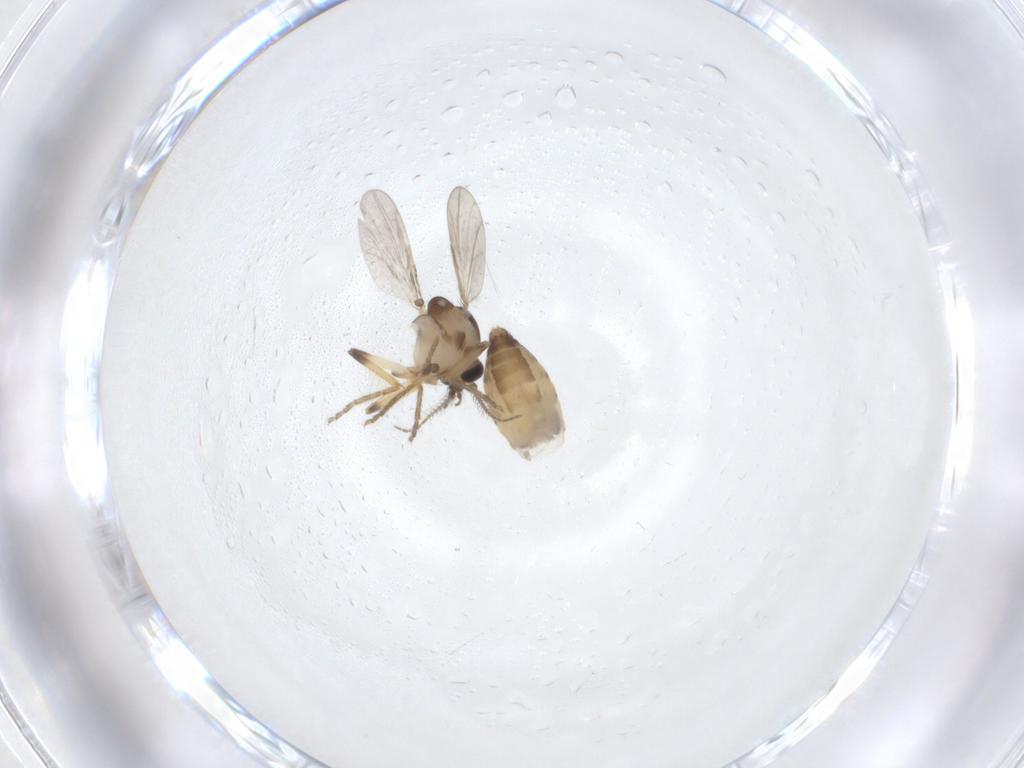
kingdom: Animalia
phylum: Arthropoda
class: Insecta
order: Diptera
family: Ceratopogonidae
